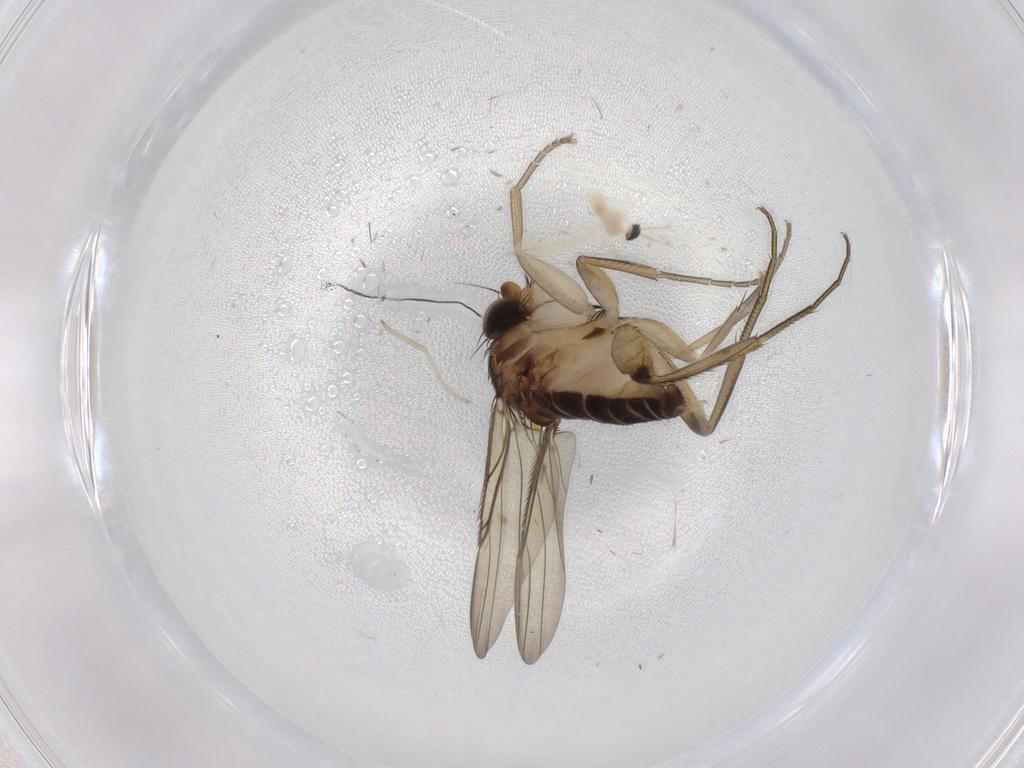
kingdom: Animalia
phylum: Arthropoda
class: Insecta
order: Diptera
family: Phoridae
